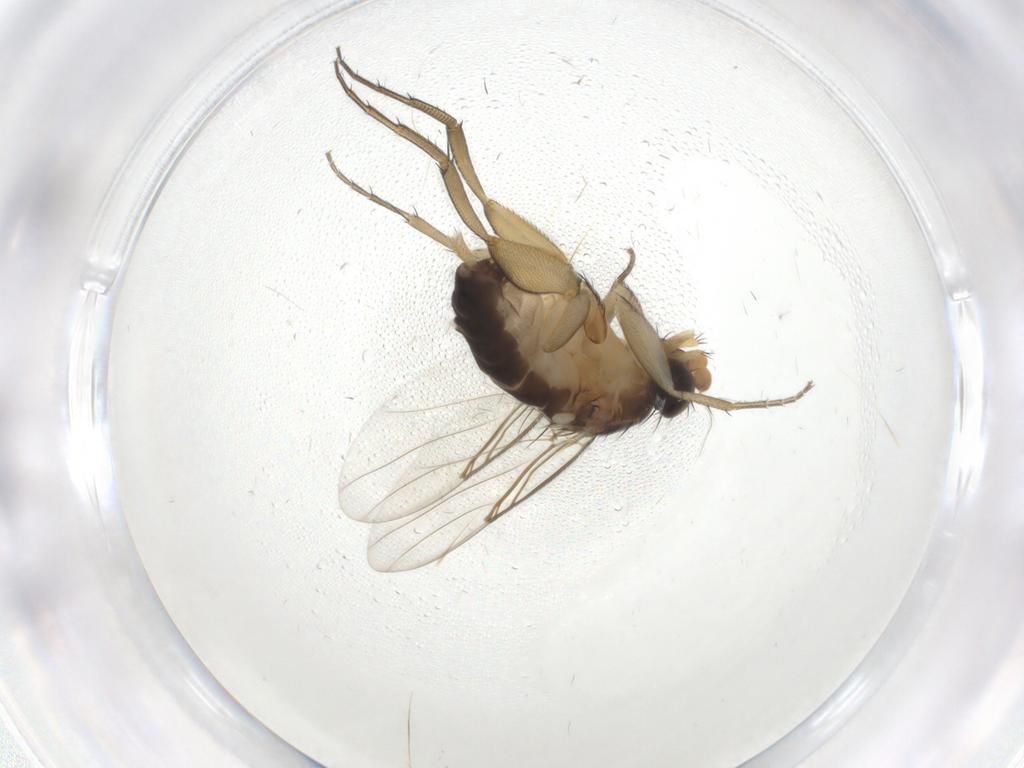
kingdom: Animalia
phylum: Arthropoda
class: Insecta
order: Diptera
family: Phoridae
